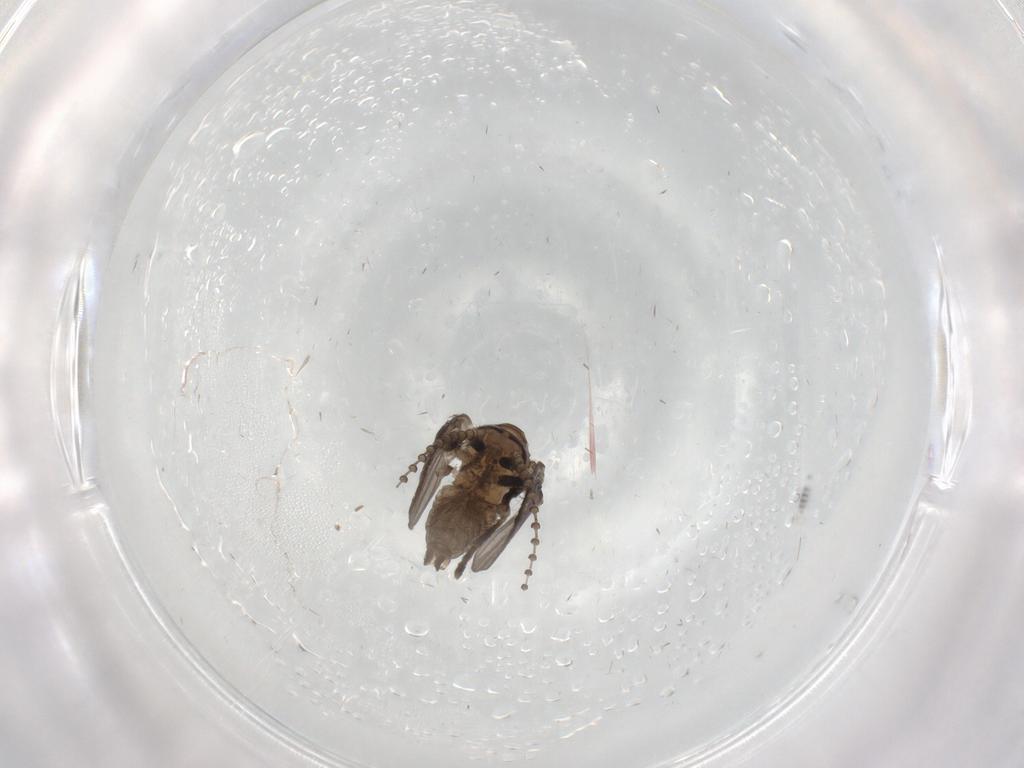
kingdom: Animalia
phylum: Arthropoda
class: Insecta
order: Diptera
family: Psychodidae
